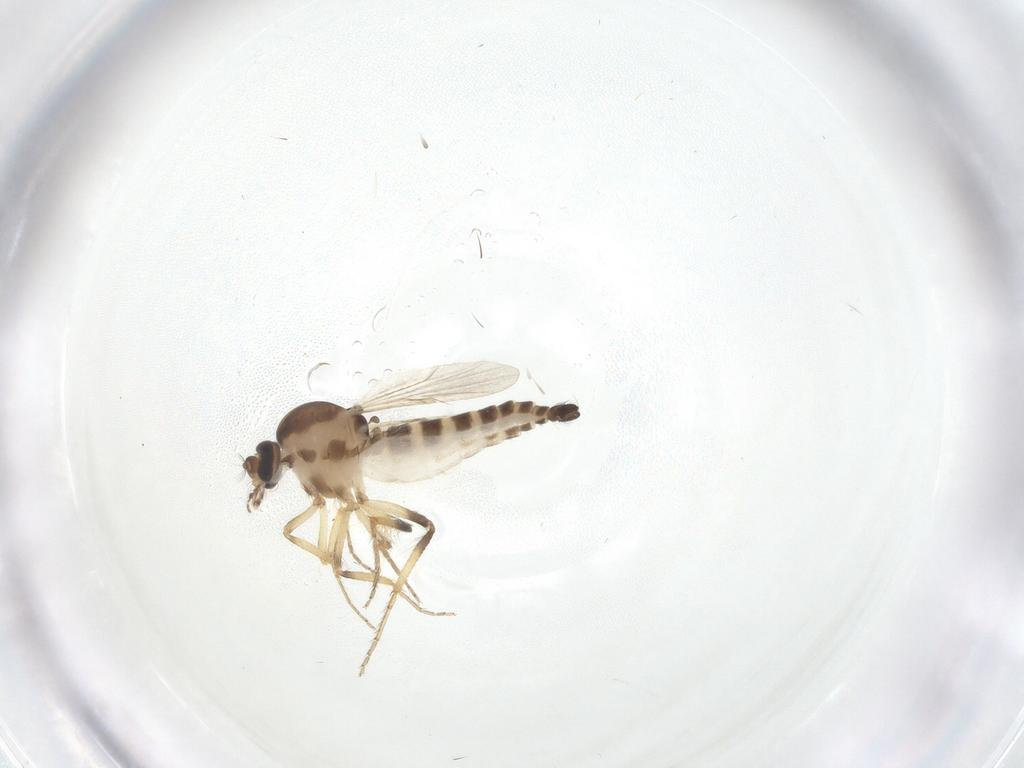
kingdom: Animalia
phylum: Arthropoda
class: Insecta
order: Diptera
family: Ceratopogonidae
